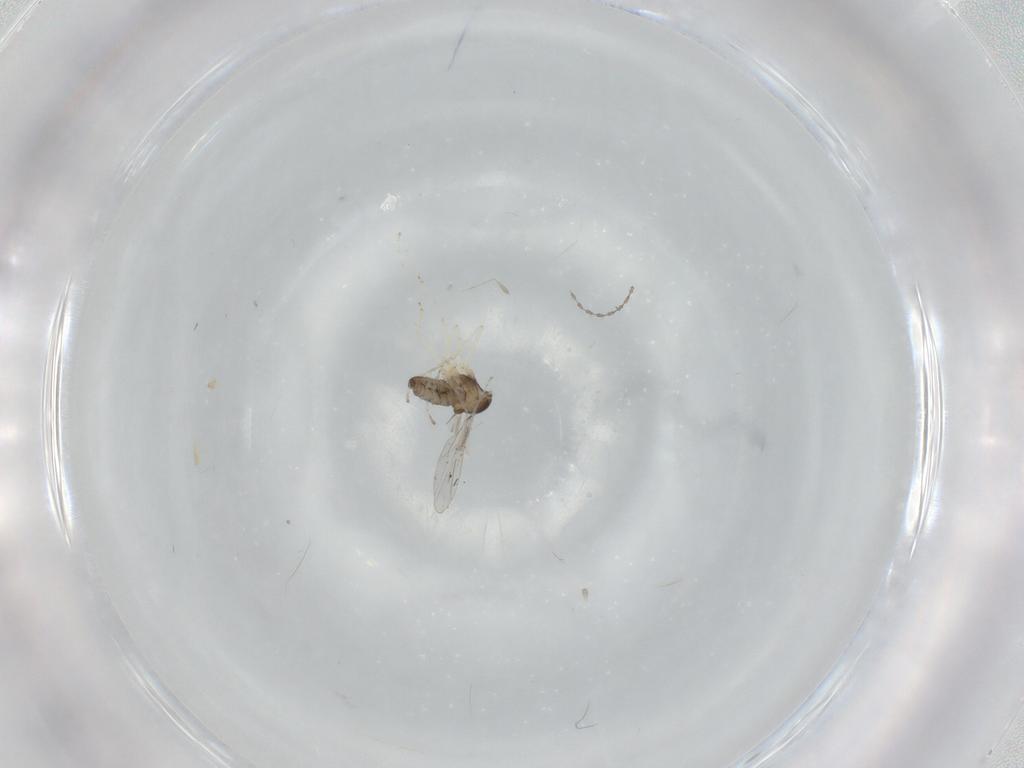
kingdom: Animalia
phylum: Arthropoda
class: Insecta
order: Diptera
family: Cecidomyiidae
